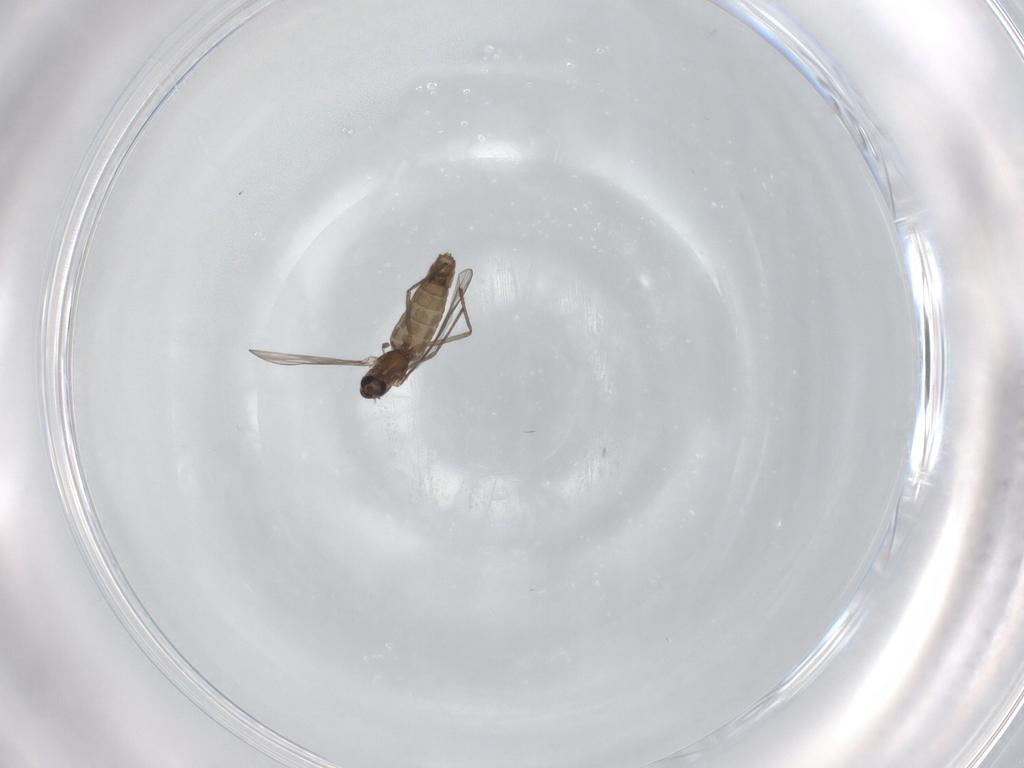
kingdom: Animalia
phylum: Arthropoda
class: Insecta
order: Diptera
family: Chironomidae
